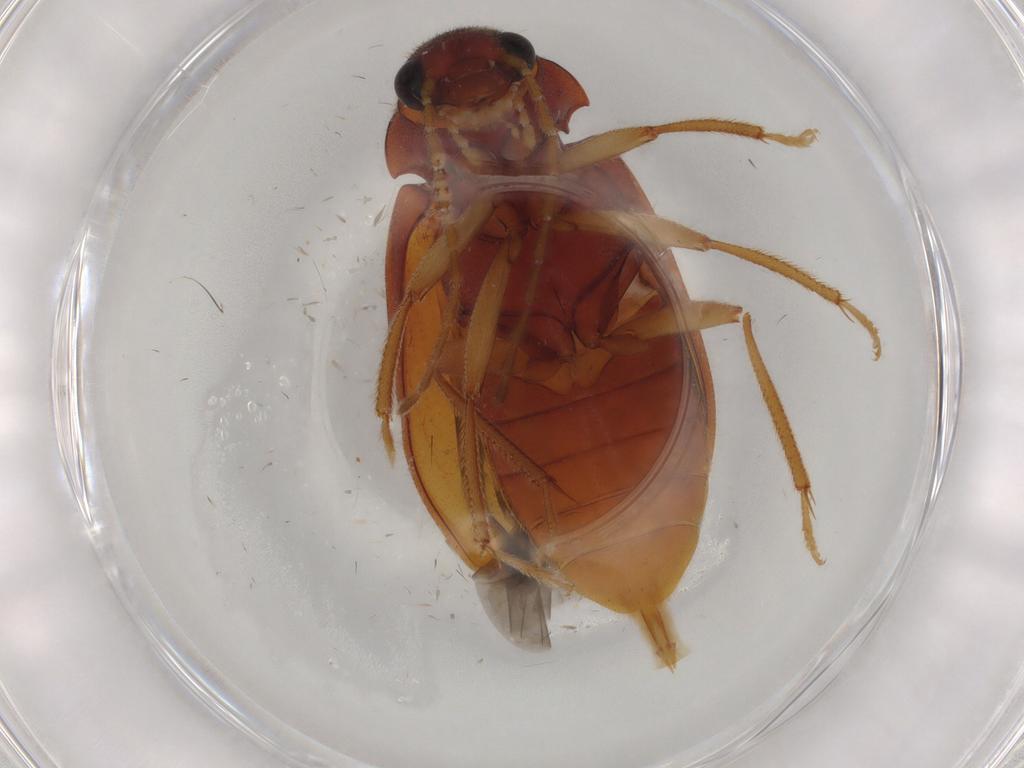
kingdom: Animalia
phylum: Arthropoda
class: Insecta
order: Coleoptera
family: Ptilodactylidae
